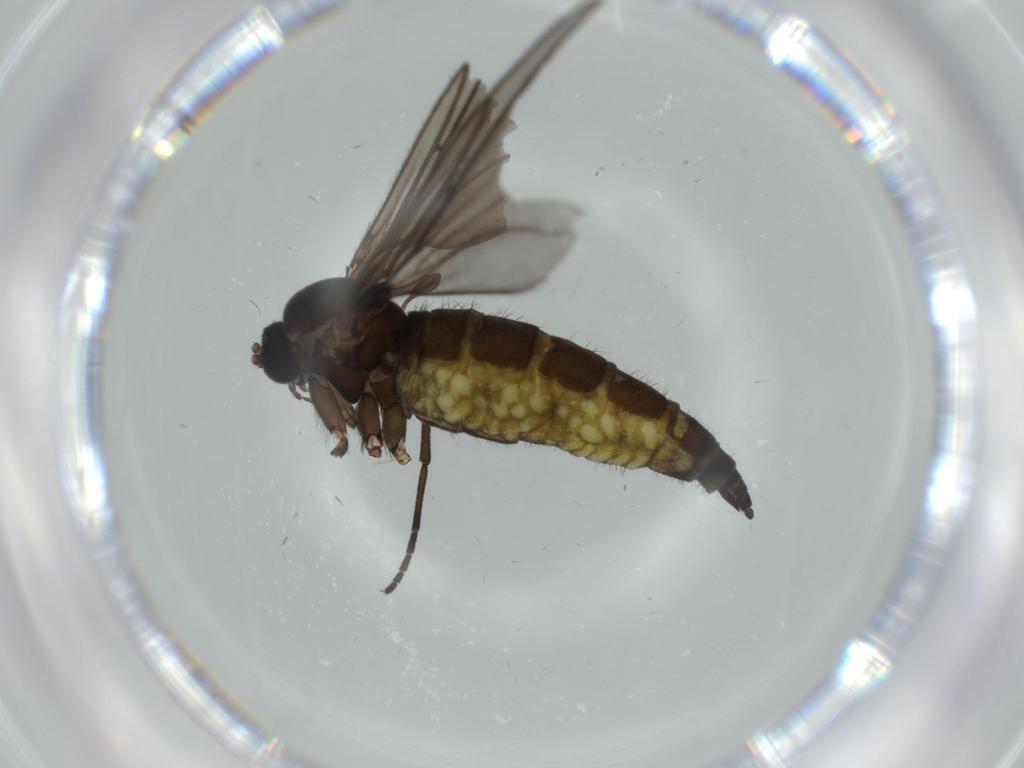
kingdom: Animalia
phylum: Arthropoda
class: Insecta
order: Diptera
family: Sciaridae
